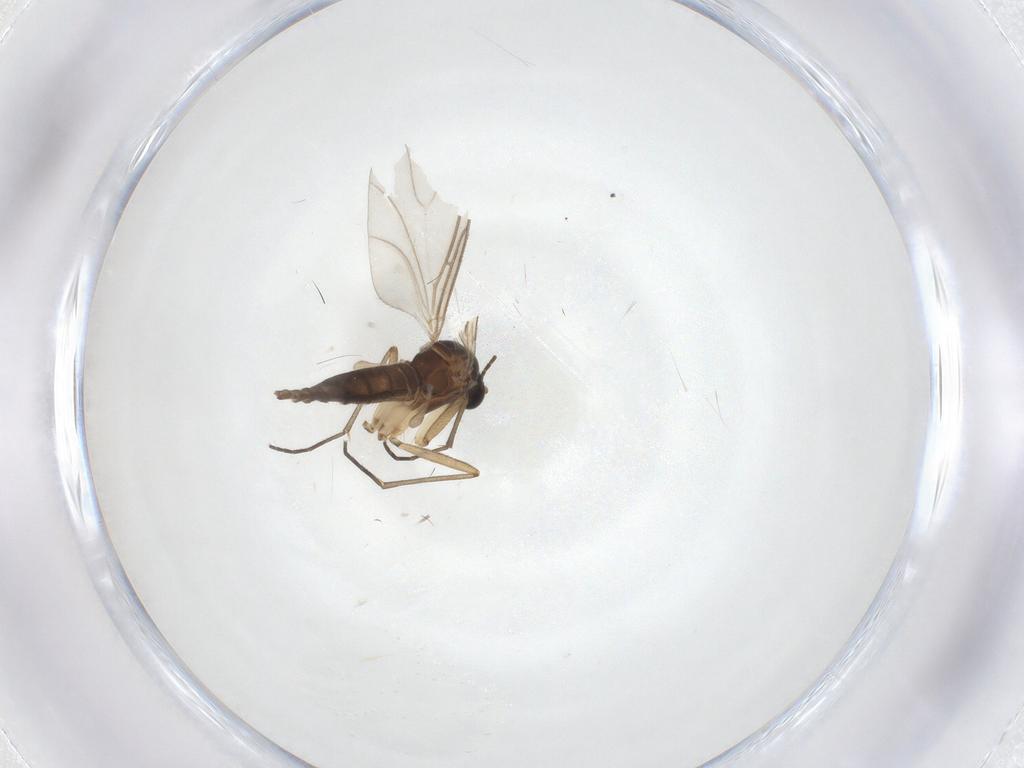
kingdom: Animalia
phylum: Arthropoda
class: Insecta
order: Diptera
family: Sciaridae
